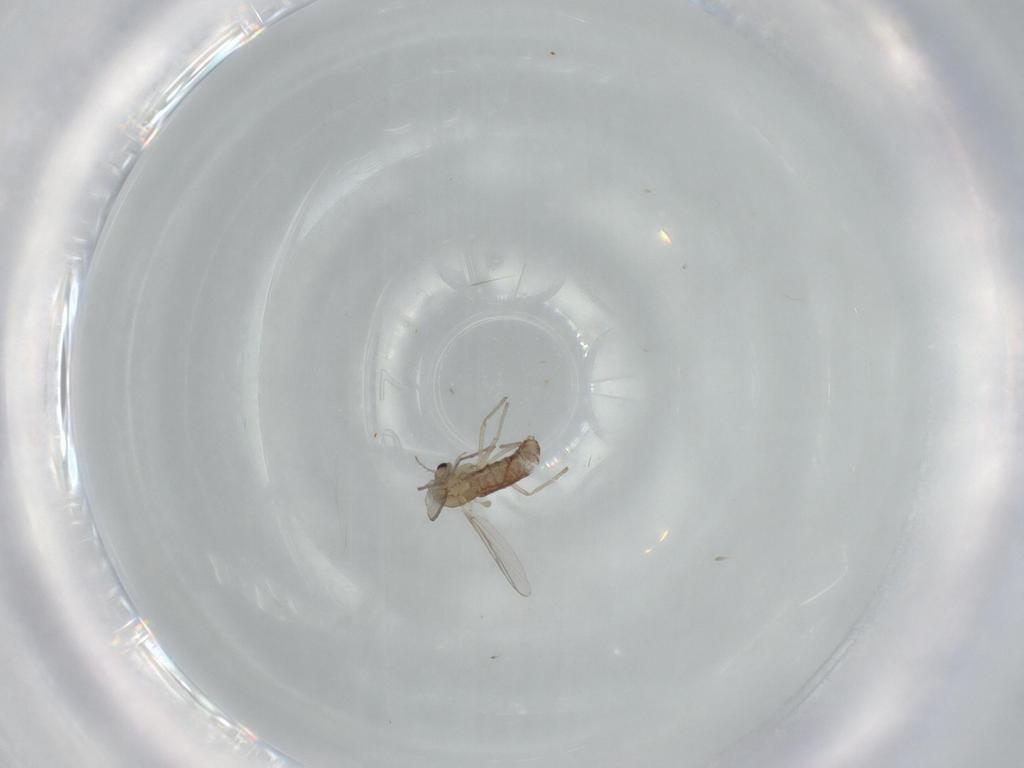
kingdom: Animalia
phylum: Arthropoda
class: Insecta
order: Diptera
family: Chironomidae
